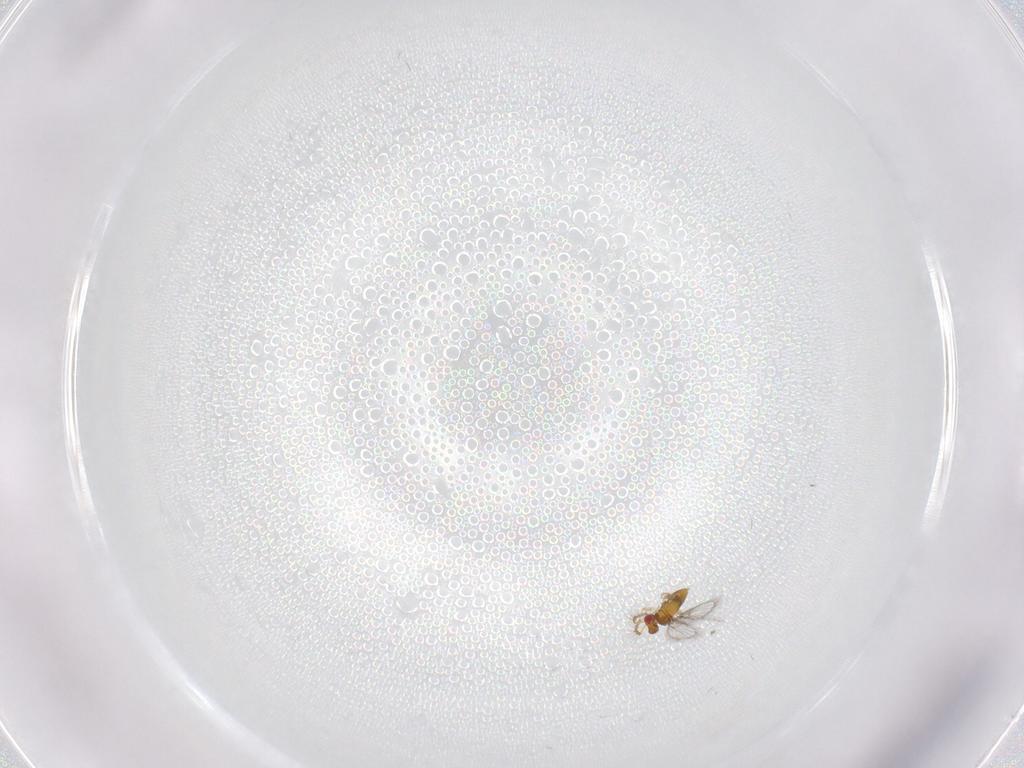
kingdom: Animalia
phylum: Arthropoda
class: Insecta
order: Hymenoptera
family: Trichogrammatidae
